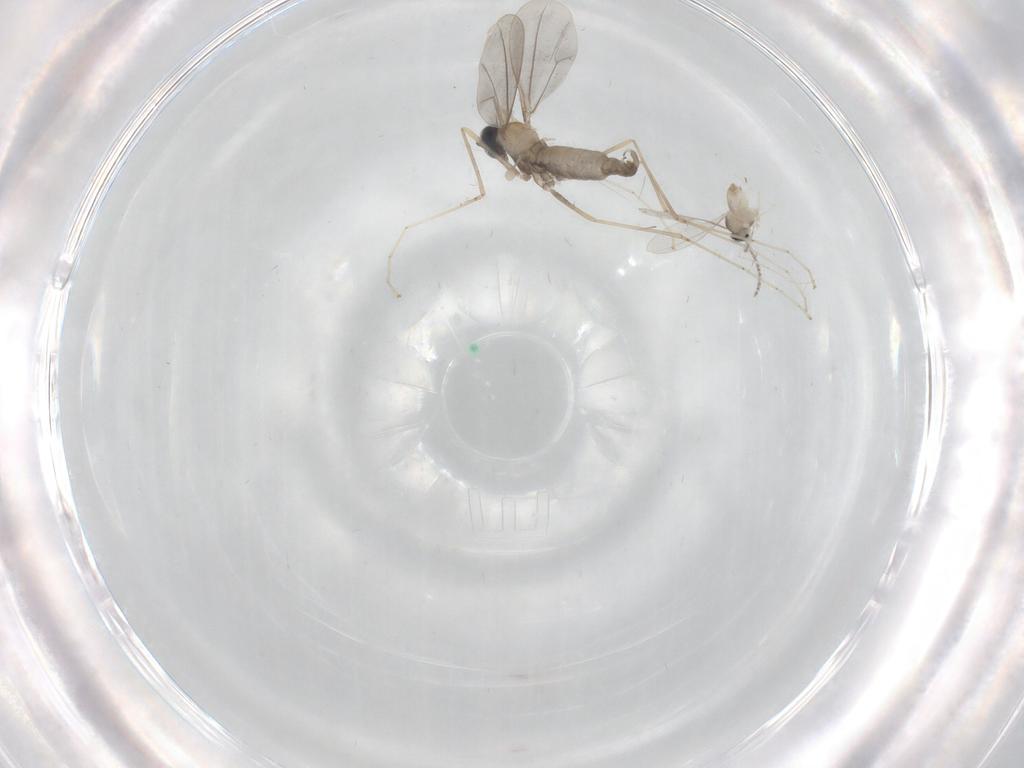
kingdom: Animalia
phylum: Arthropoda
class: Insecta
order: Diptera
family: Cecidomyiidae
